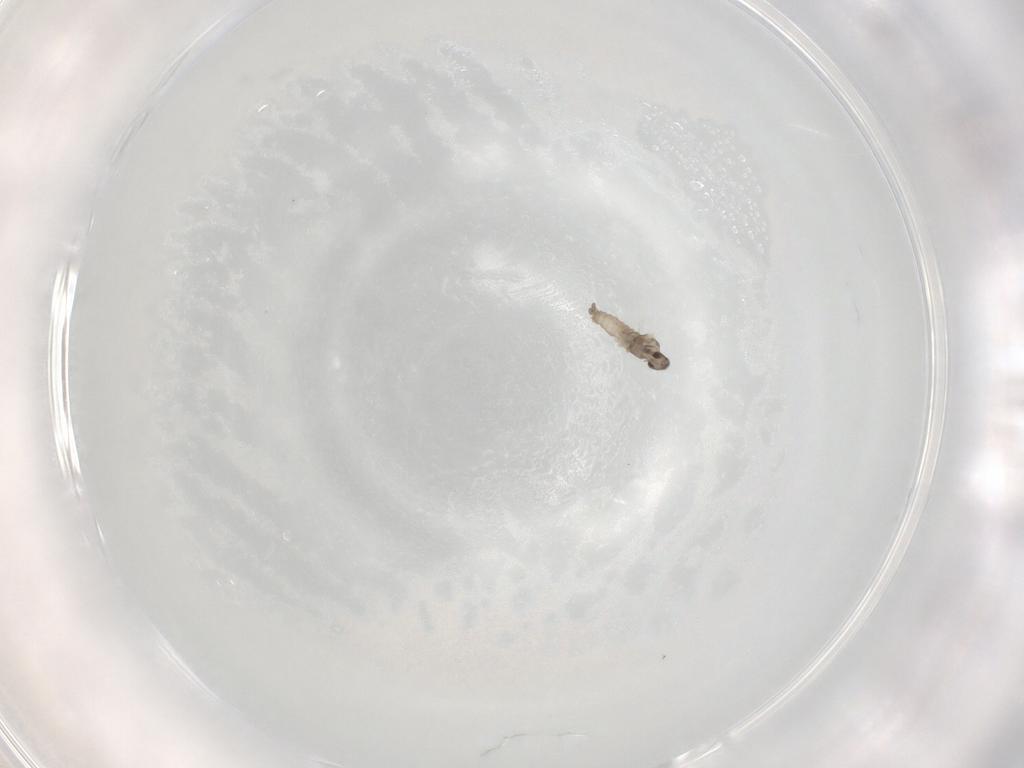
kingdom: Animalia
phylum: Arthropoda
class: Insecta
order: Diptera
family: Cecidomyiidae
